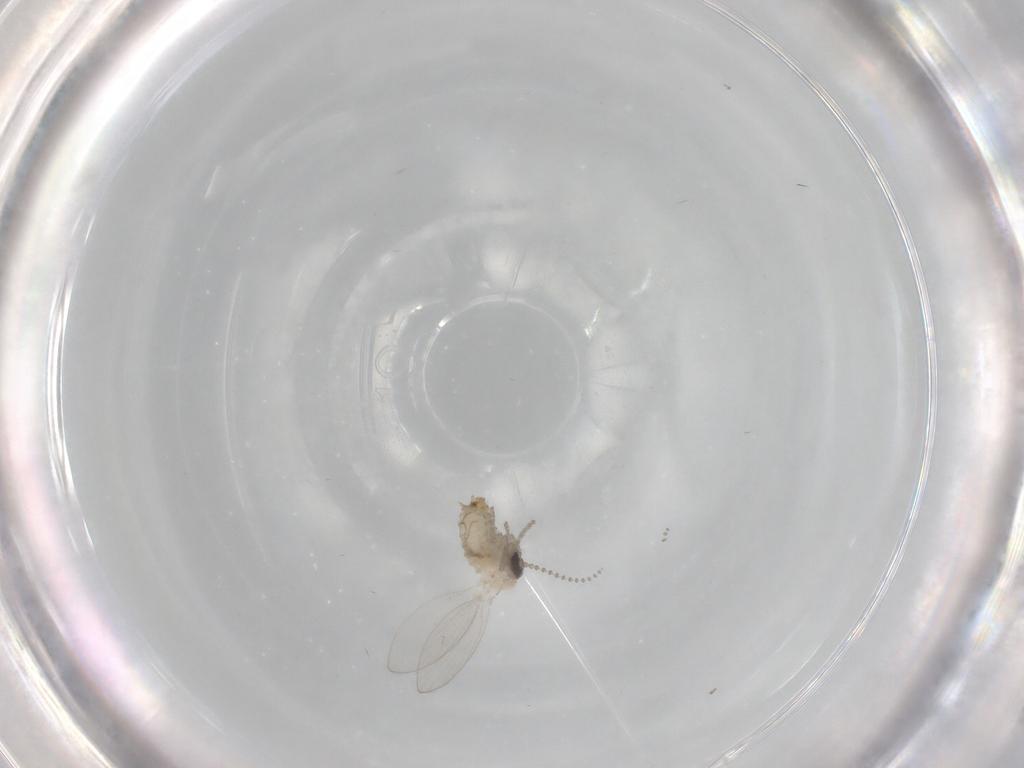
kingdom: Animalia
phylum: Arthropoda
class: Insecta
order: Diptera
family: Psychodidae
